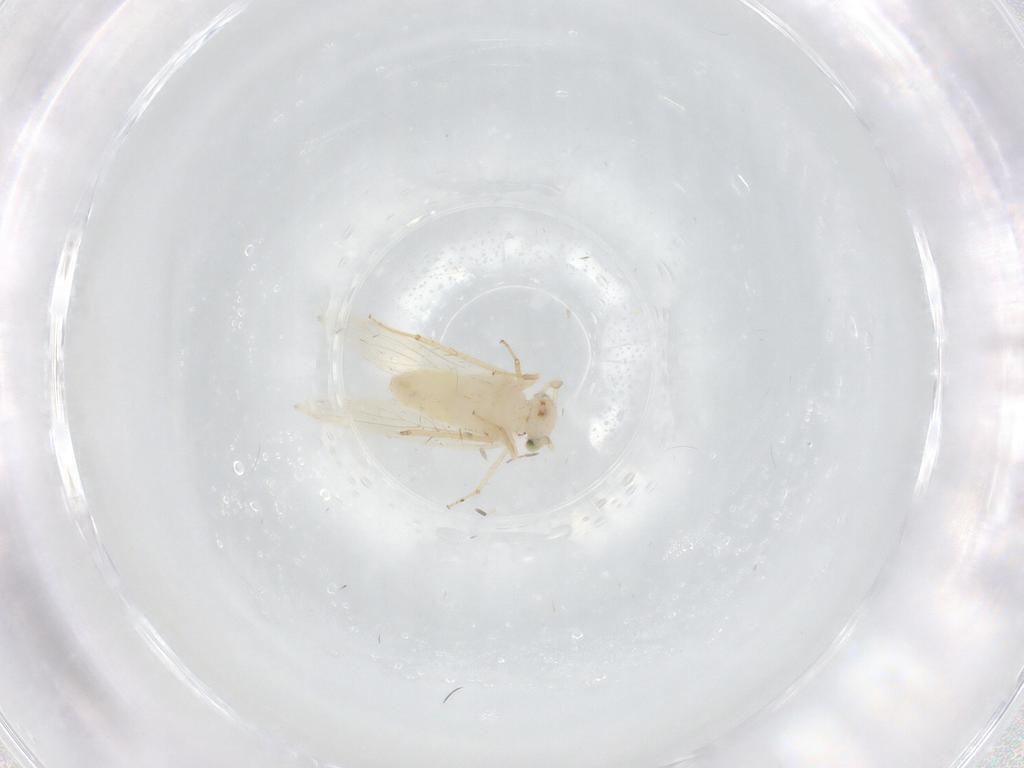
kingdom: Animalia
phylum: Arthropoda
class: Insecta
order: Psocodea
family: Lepidopsocidae
